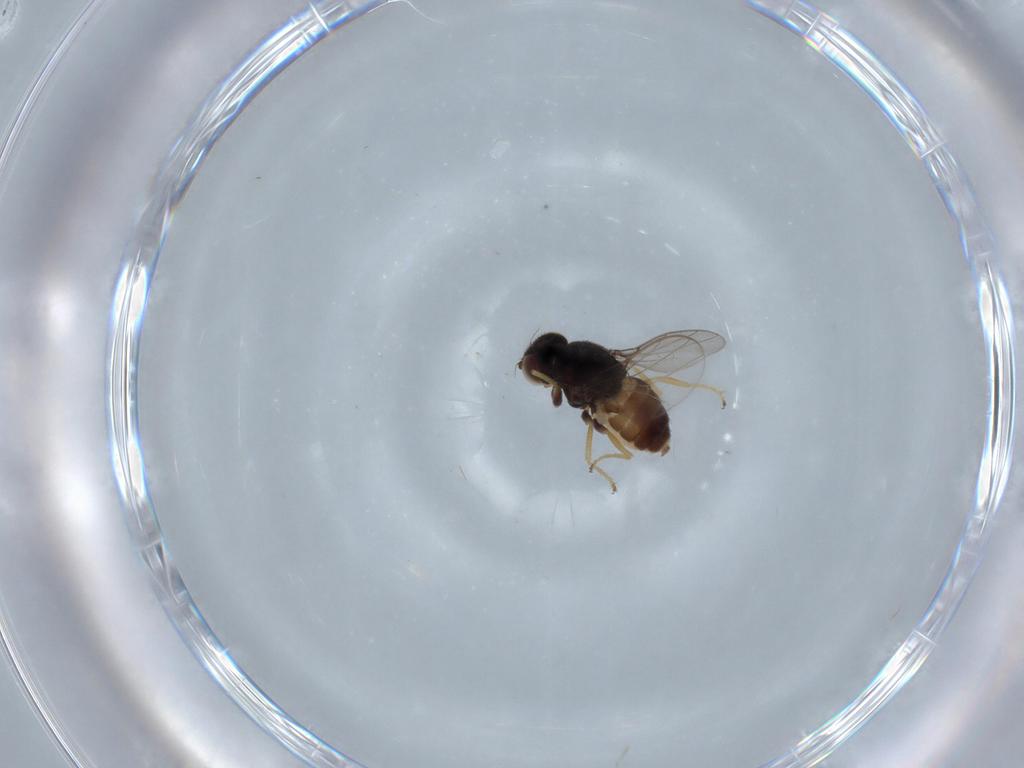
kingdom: Animalia
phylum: Arthropoda
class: Insecta
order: Diptera
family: Chloropidae
